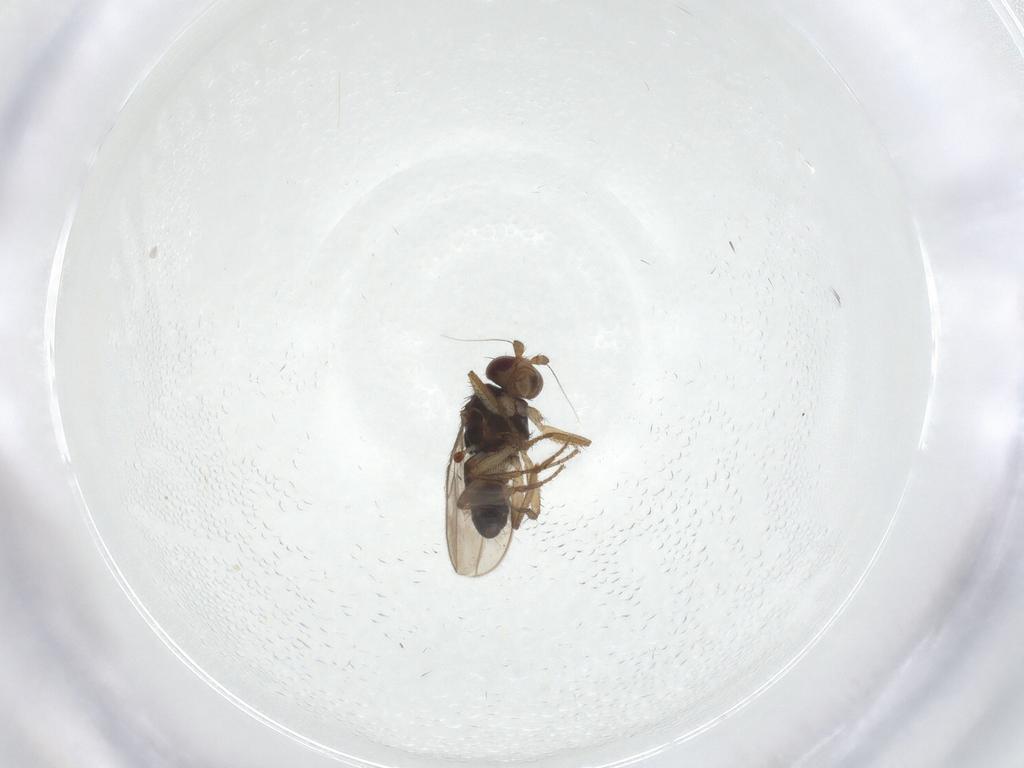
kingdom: Animalia
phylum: Arthropoda
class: Insecta
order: Diptera
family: Sphaeroceridae
